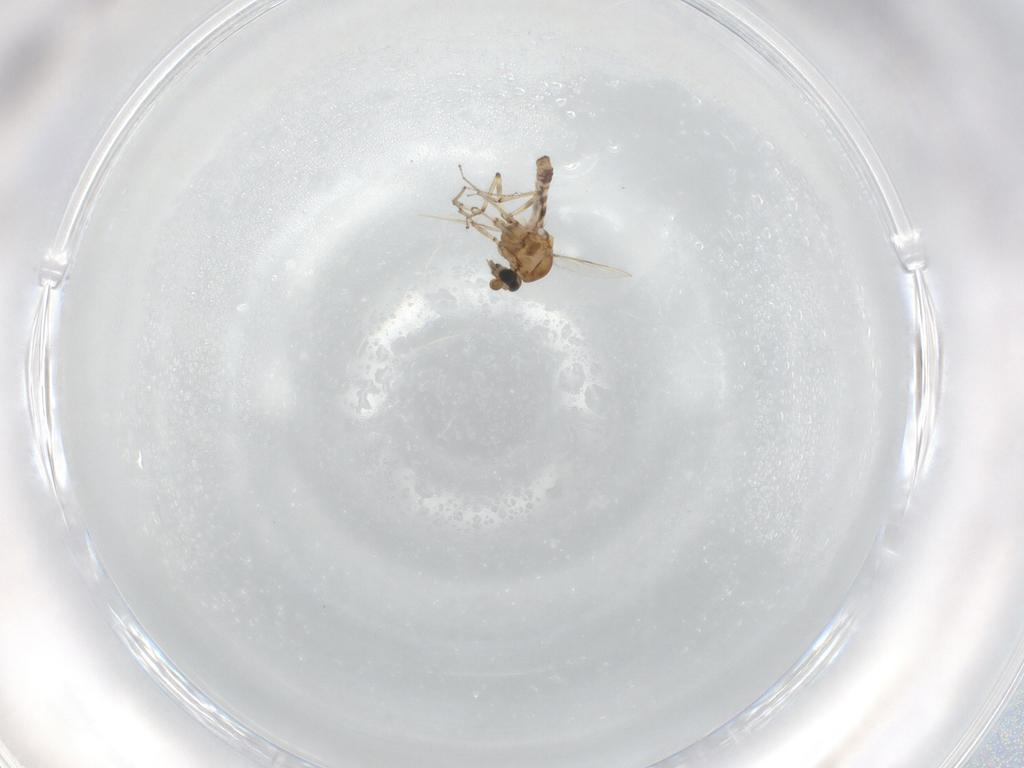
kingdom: Animalia
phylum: Arthropoda
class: Insecta
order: Diptera
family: Ceratopogonidae
